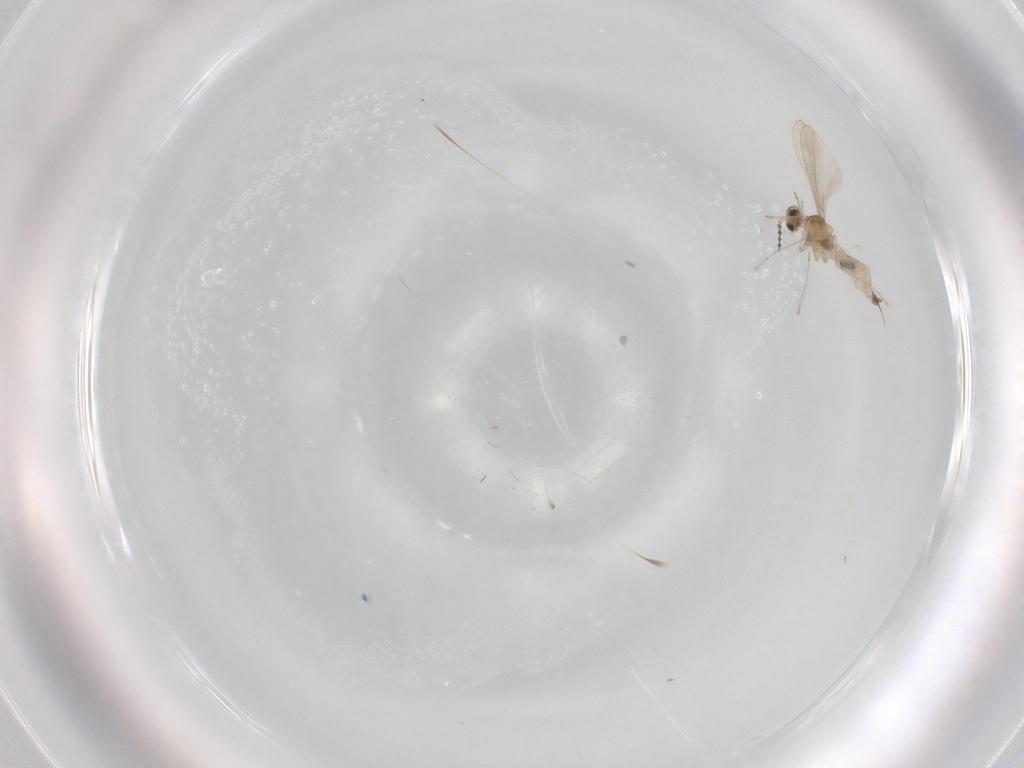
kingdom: Animalia
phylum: Arthropoda
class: Insecta
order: Diptera
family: Cecidomyiidae
